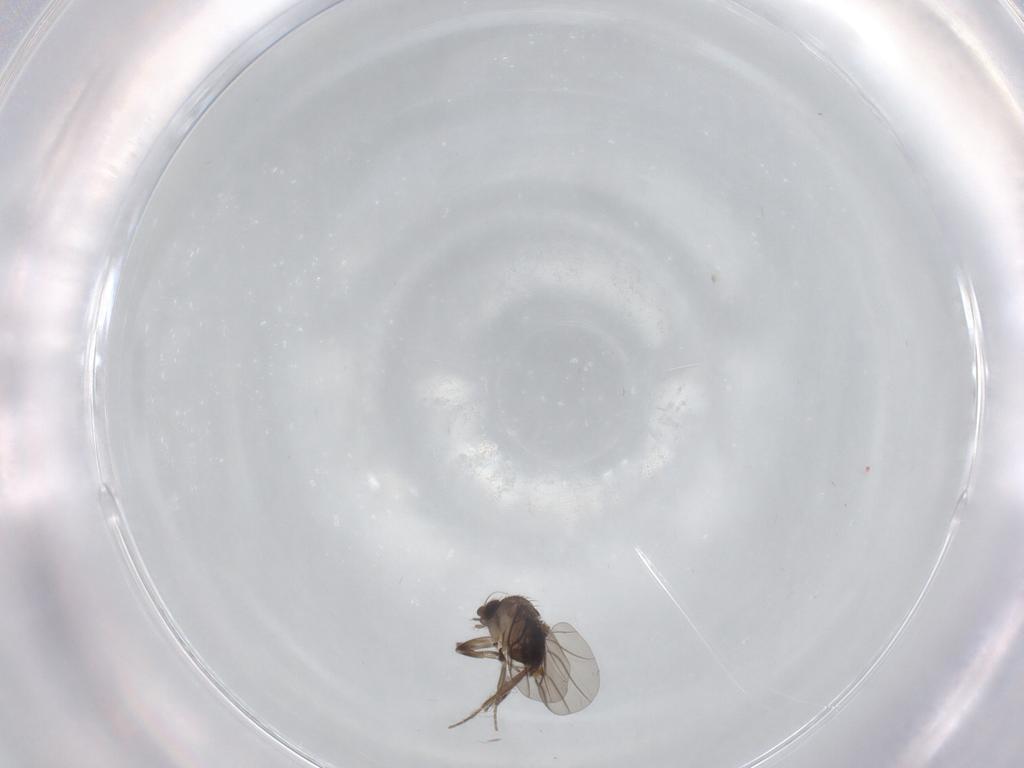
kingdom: Animalia
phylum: Arthropoda
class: Insecta
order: Diptera
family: Chironomidae
